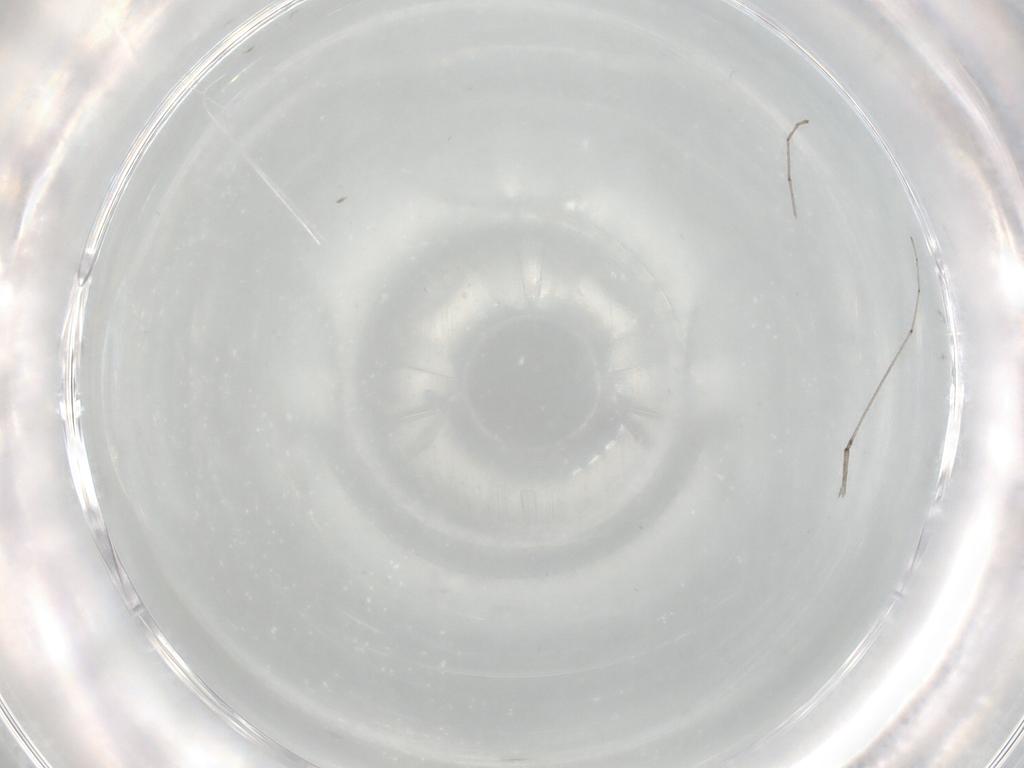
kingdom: Animalia
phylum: Arthropoda
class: Insecta
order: Diptera
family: Cecidomyiidae
